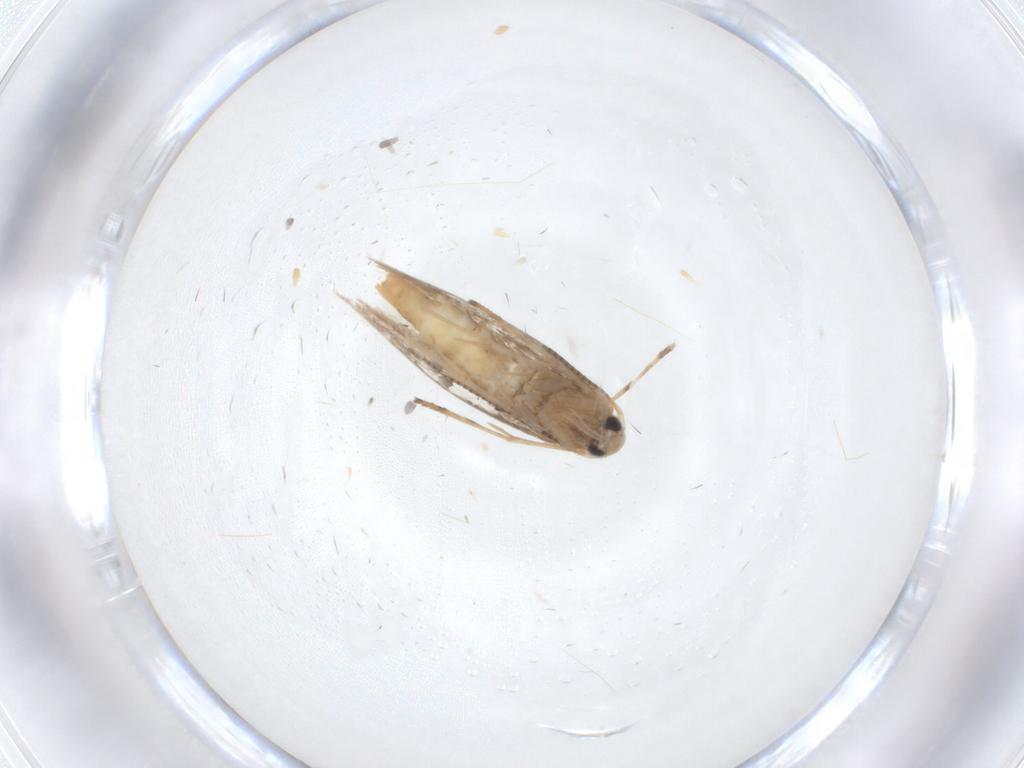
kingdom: Animalia
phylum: Arthropoda
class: Insecta
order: Lepidoptera
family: Gracillariidae
